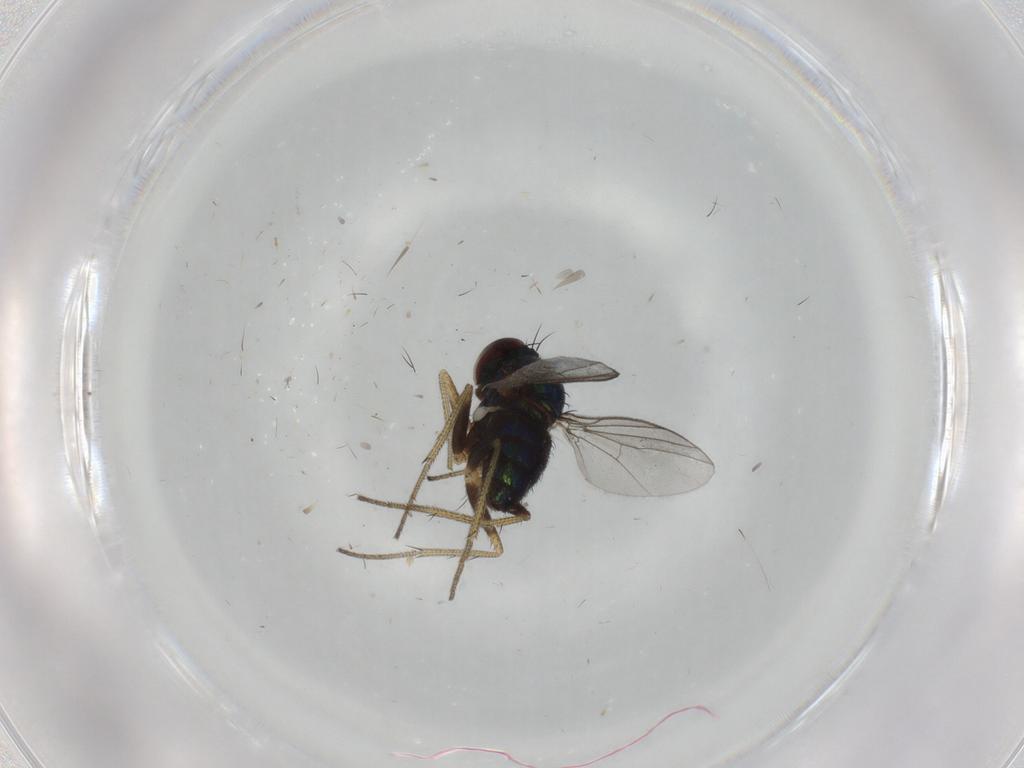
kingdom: Animalia
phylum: Arthropoda
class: Insecta
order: Diptera
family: Cecidomyiidae
